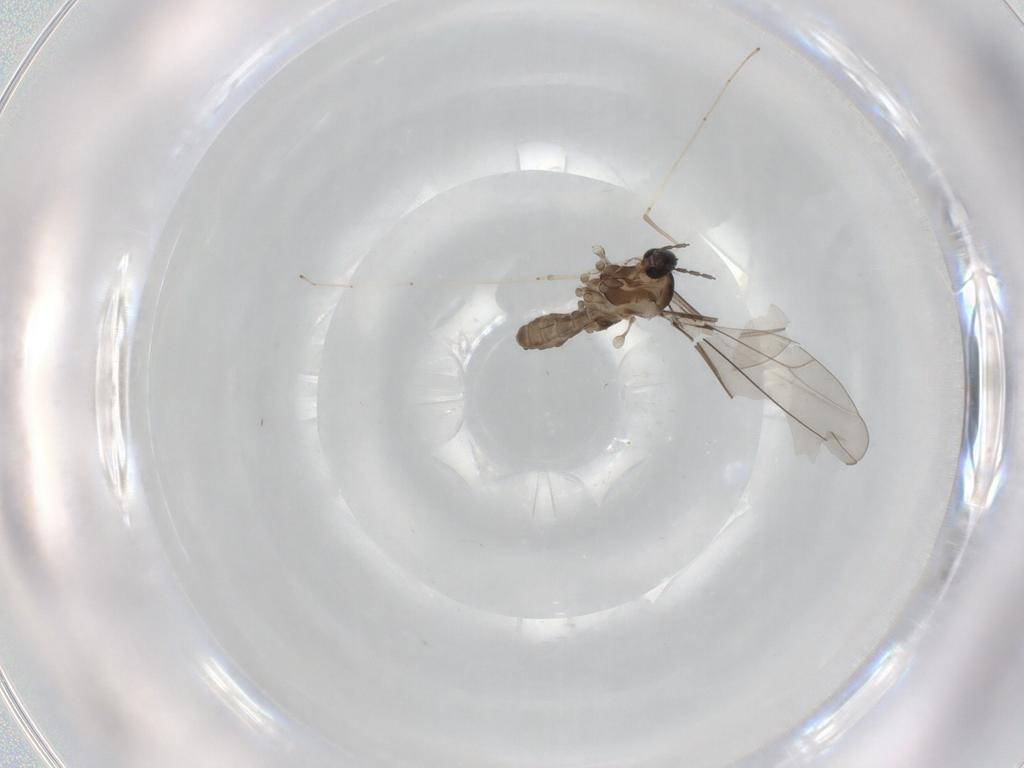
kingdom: Animalia
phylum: Arthropoda
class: Insecta
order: Diptera
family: Cecidomyiidae
